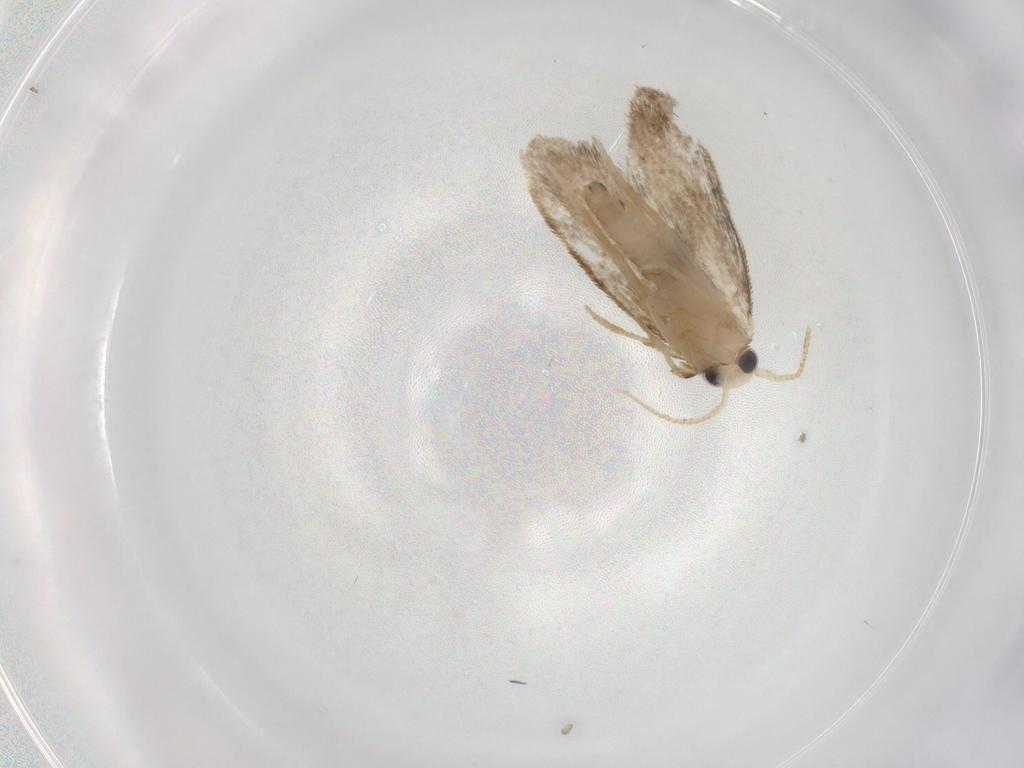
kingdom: Animalia
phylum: Arthropoda
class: Insecta
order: Lepidoptera
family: Psychidae
